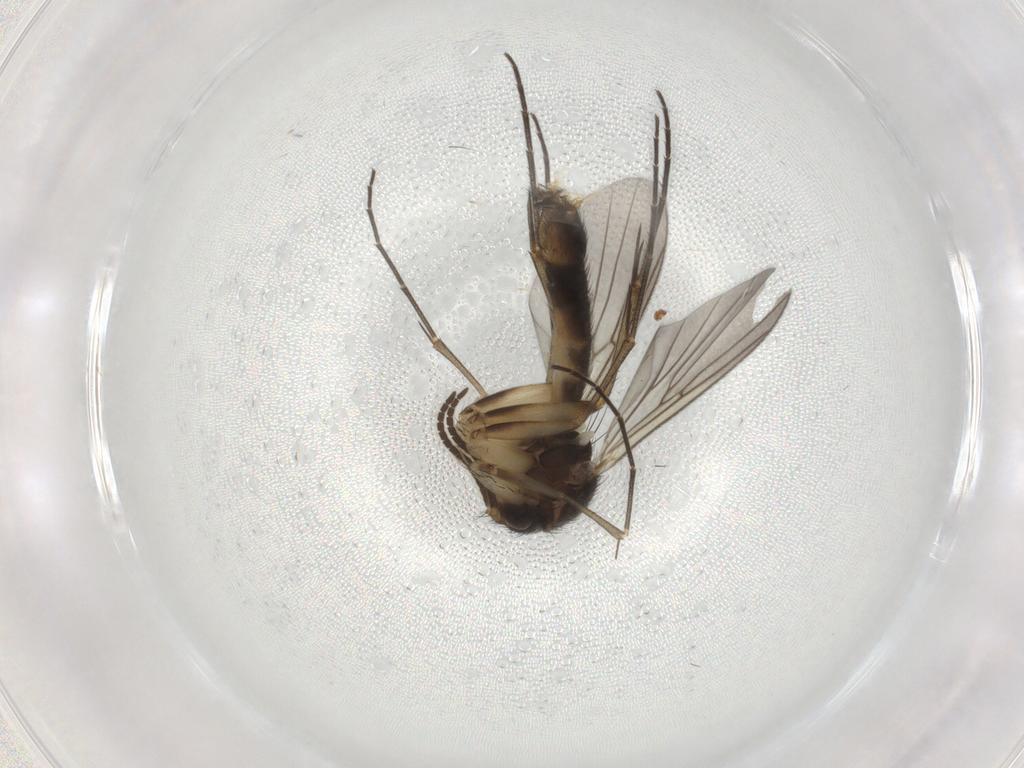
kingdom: Animalia
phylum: Arthropoda
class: Insecta
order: Diptera
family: Mycetophilidae
